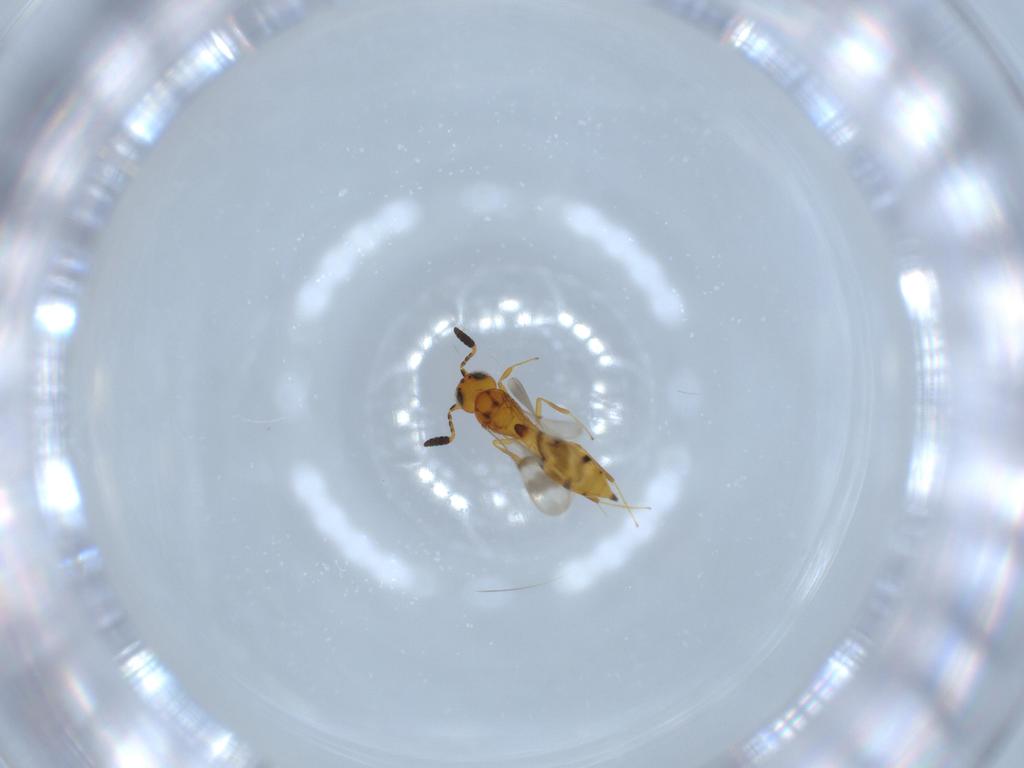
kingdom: Animalia
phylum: Arthropoda
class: Insecta
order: Hymenoptera
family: Scelionidae
